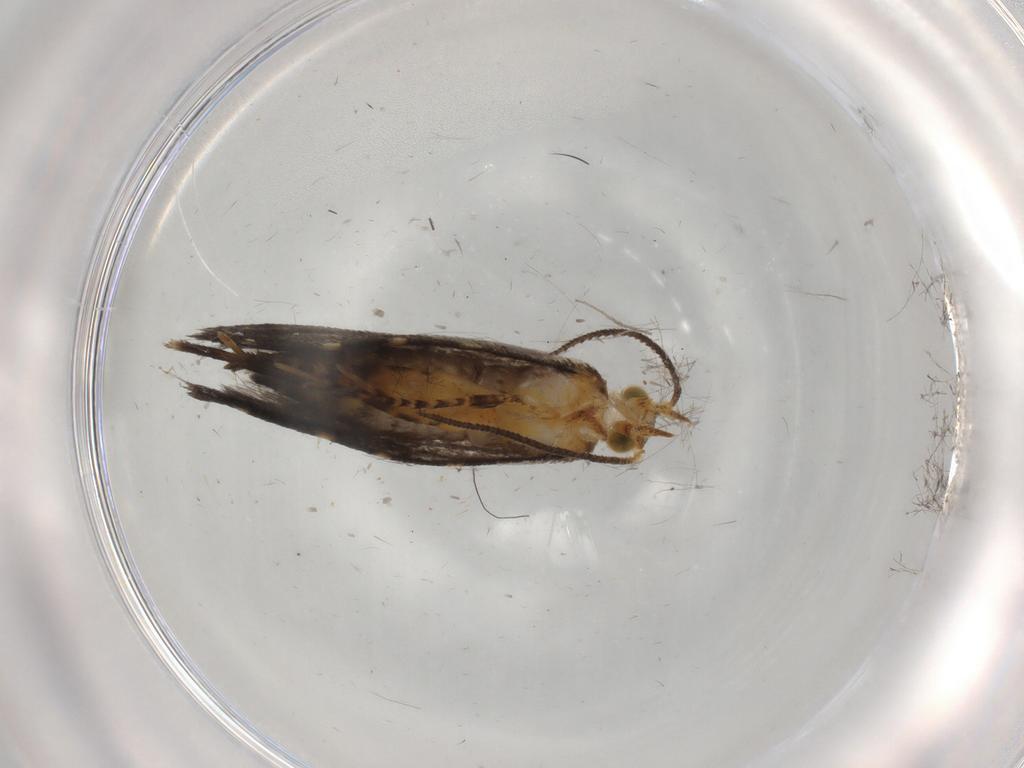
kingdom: Animalia
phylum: Arthropoda
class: Insecta
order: Lepidoptera
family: Gelechiidae
